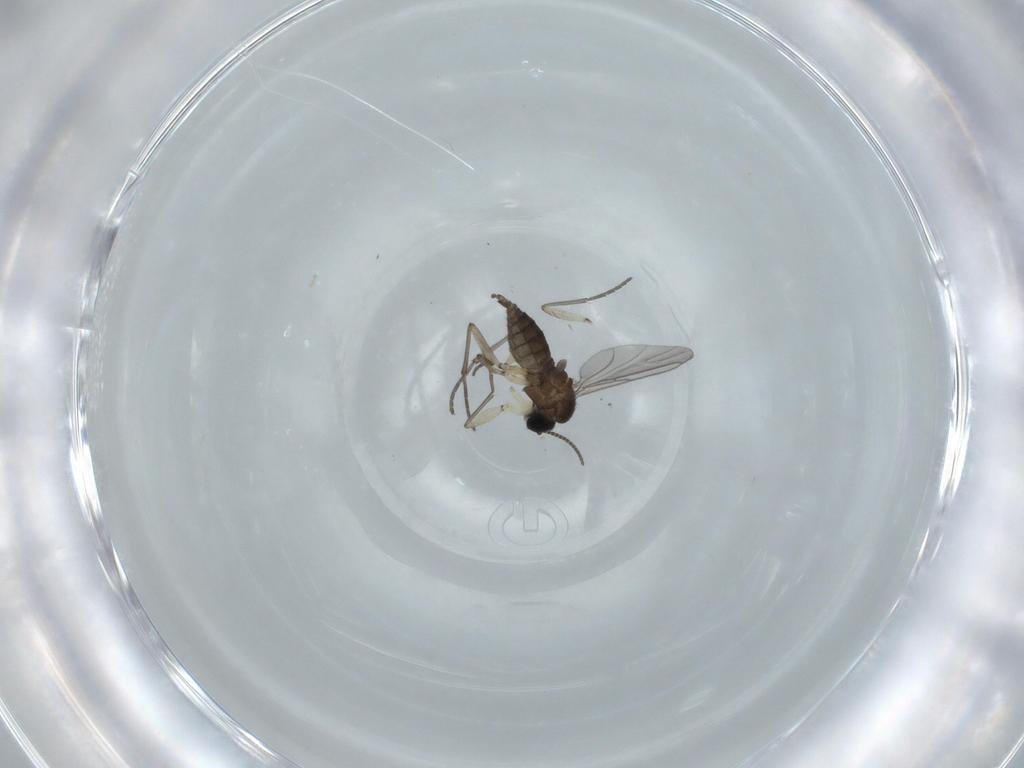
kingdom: Animalia
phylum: Arthropoda
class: Insecta
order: Diptera
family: Sciaridae
